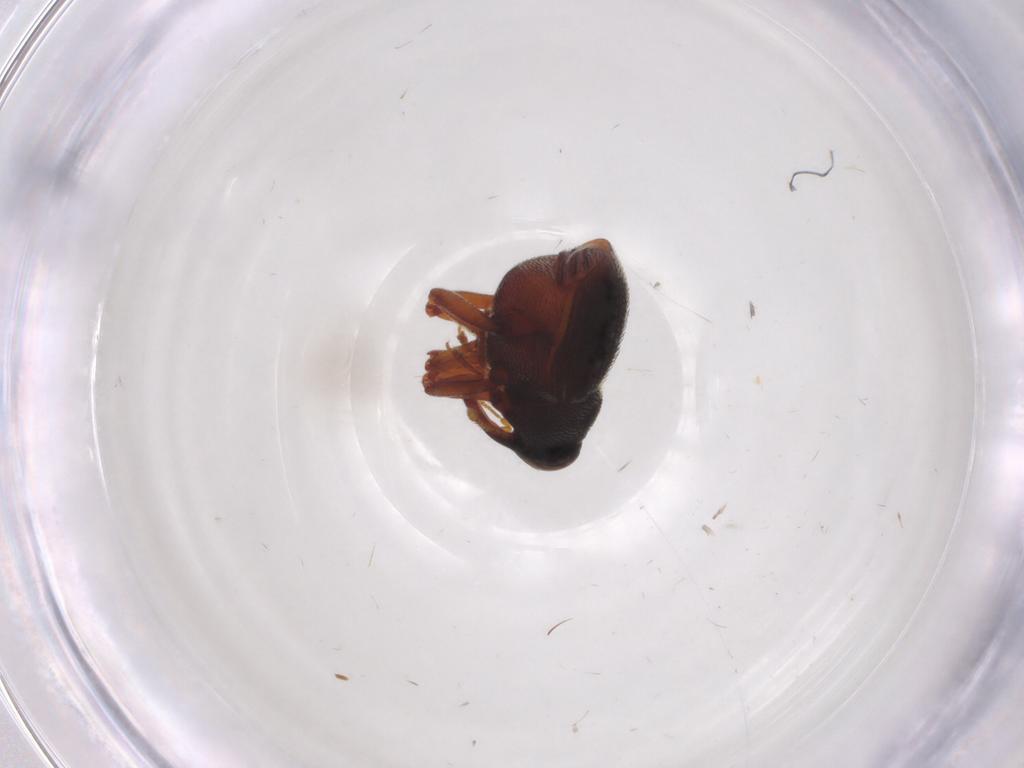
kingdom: Animalia
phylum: Arthropoda
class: Insecta
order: Coleoptera
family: Curculionidae
